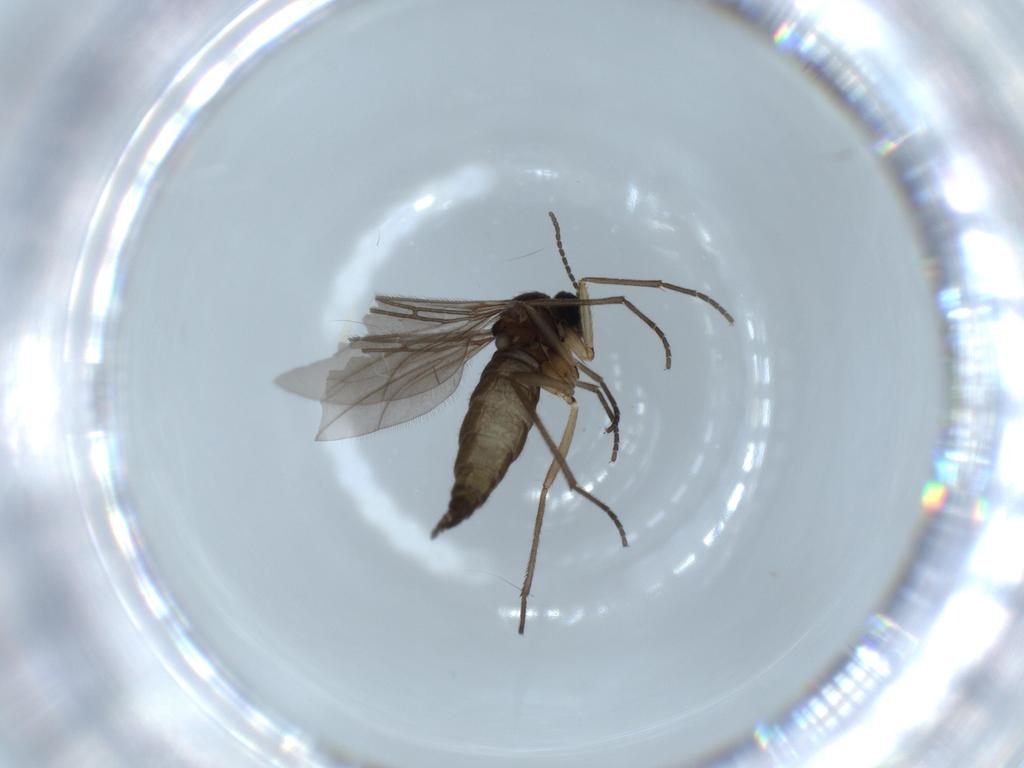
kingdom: Animalia
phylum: Arthropoda
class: Insecta
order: Diptera
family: Sciaridae
